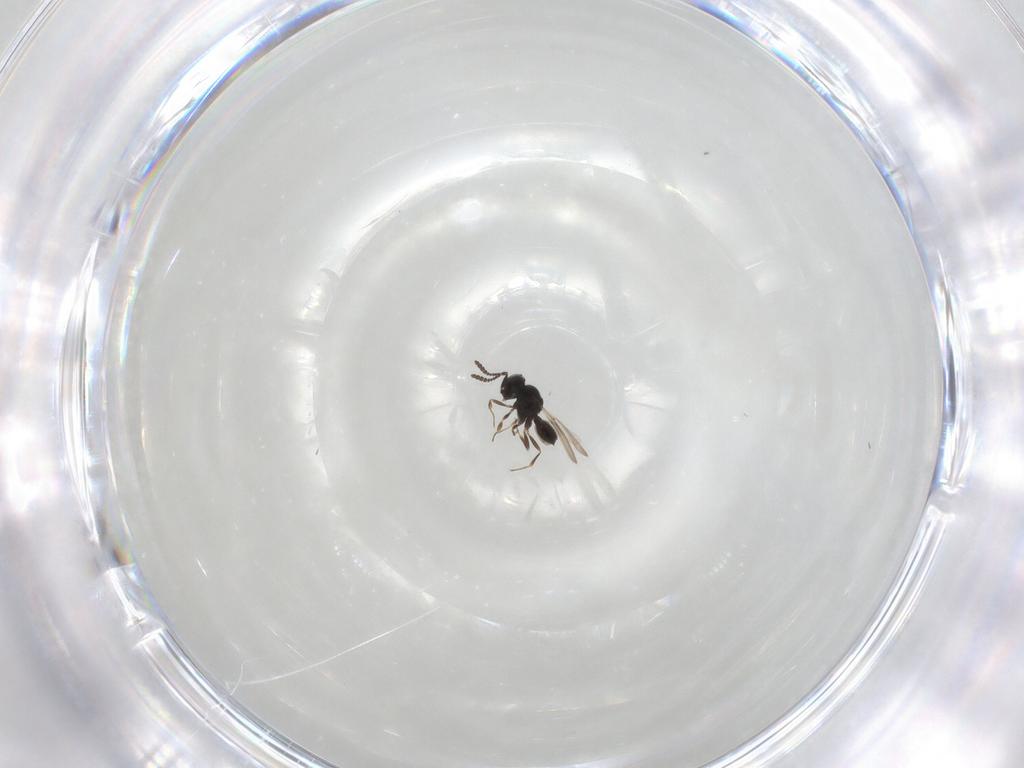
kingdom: Animalia
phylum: Arthropoda
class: Insecta
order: Hymenoptera
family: Scelionidae
